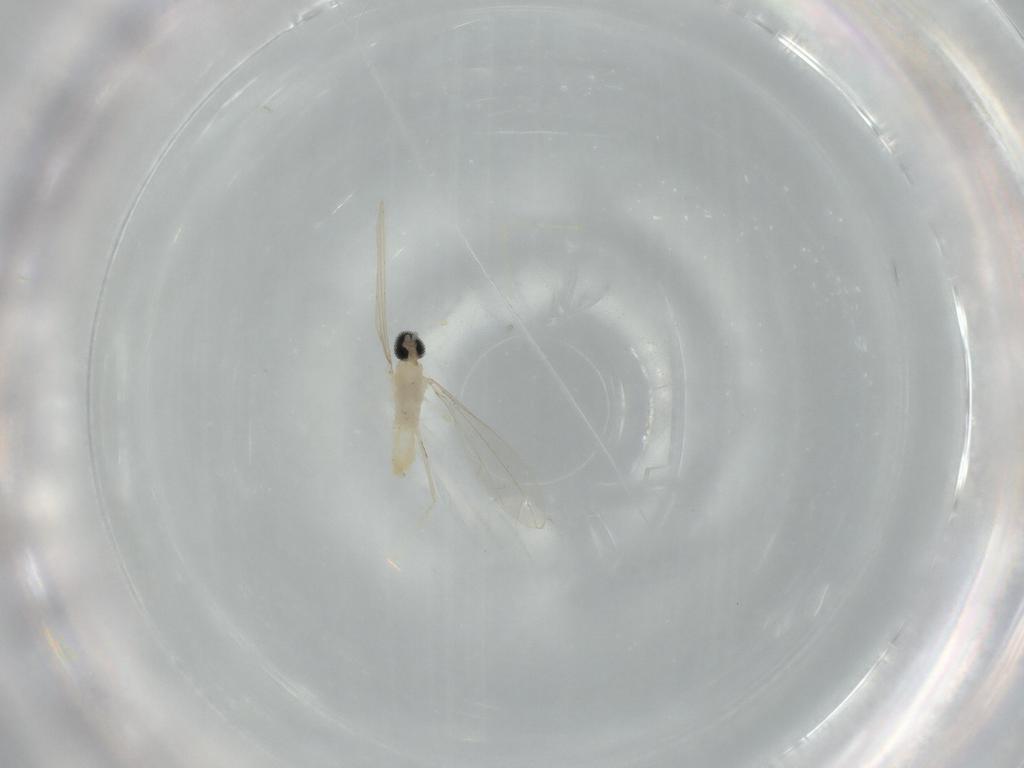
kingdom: Animalia
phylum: Arthropoda
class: Insecta
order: Diptera
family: Cecidomyiidae
